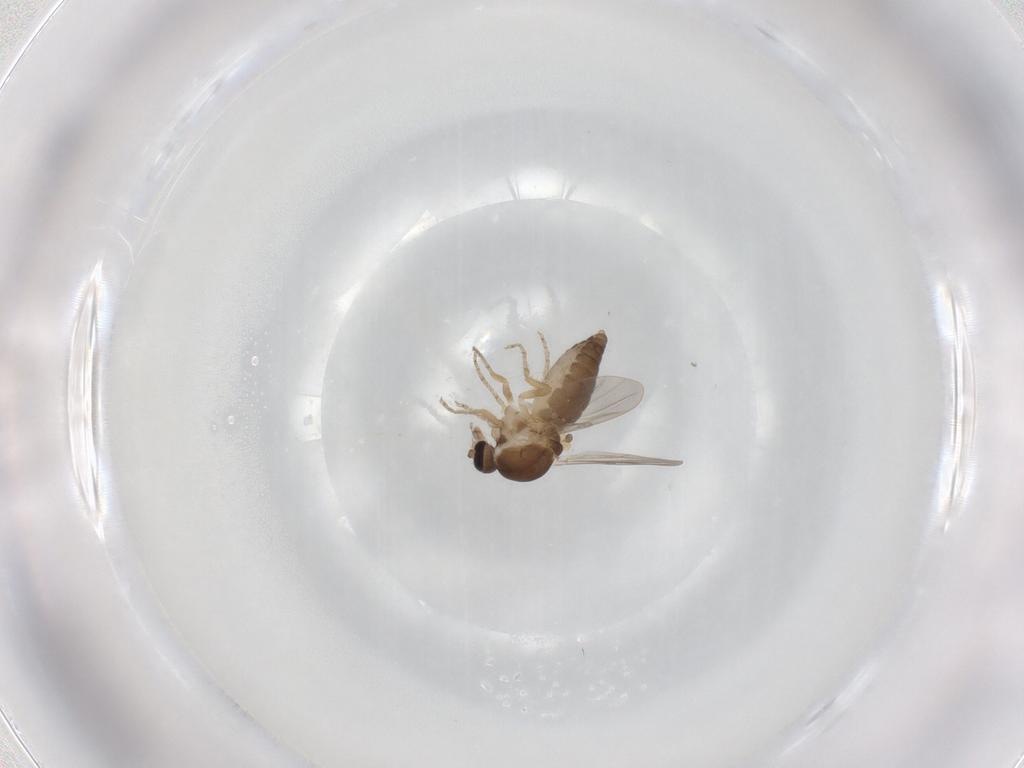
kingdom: Animalia
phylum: Arthropoda
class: Insecta
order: Diptera
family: Ceratopogonidae
